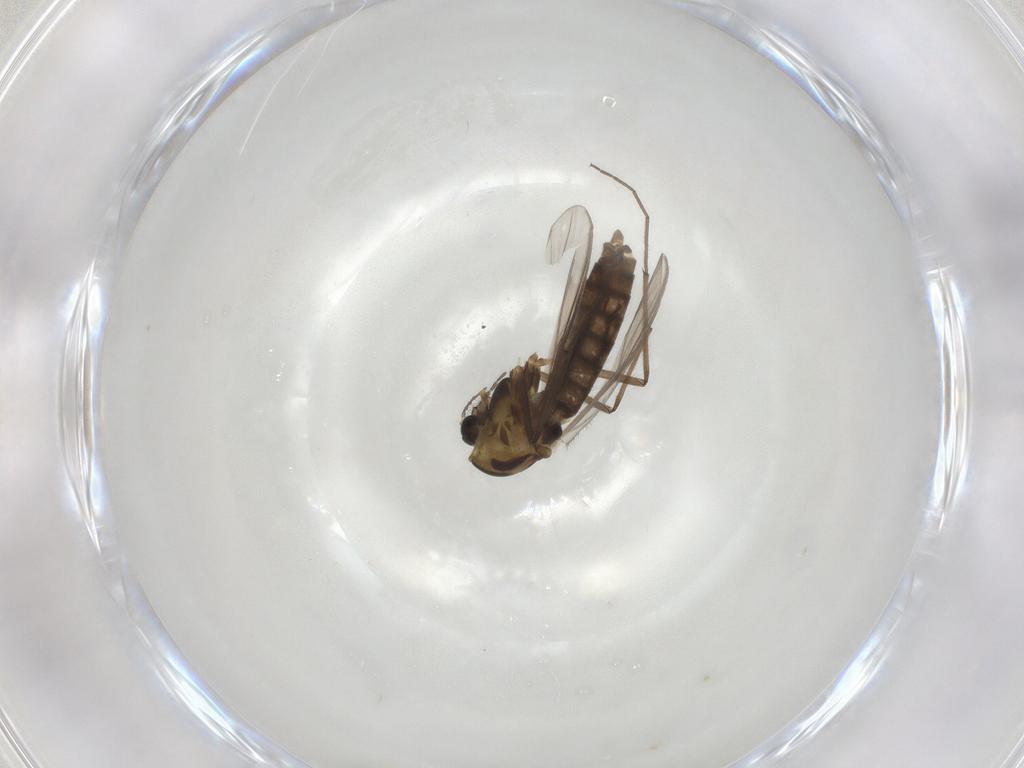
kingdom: Animalia
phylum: Arthropoda
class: Insecta
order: Diptera
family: Chironomidae
